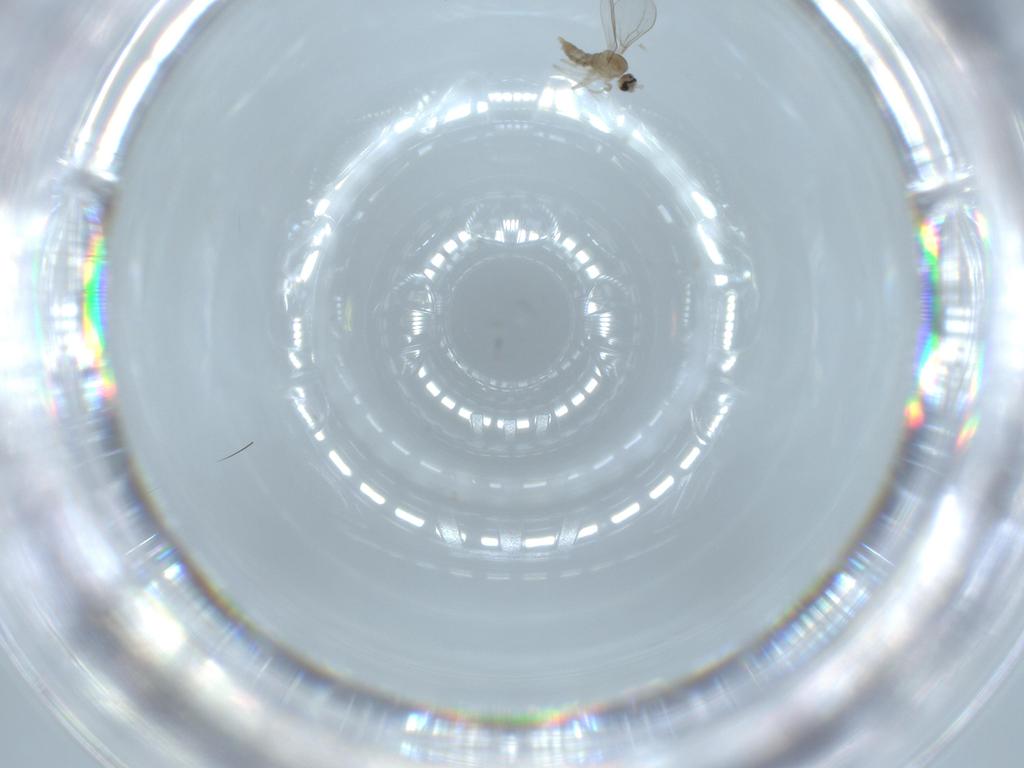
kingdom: Animalia
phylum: Arthropoda
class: Insecta
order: Diptera
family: Cecidomyiidae
